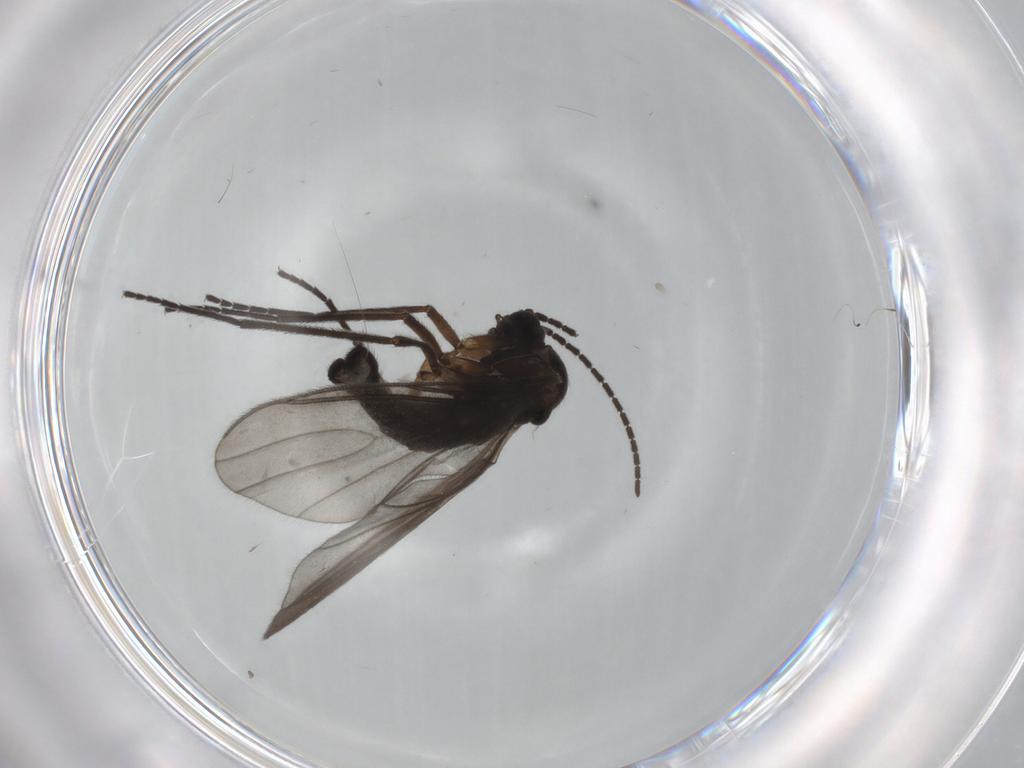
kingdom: Animalia
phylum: Arthropoda
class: Insecta
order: Diptera
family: Sciaridae
